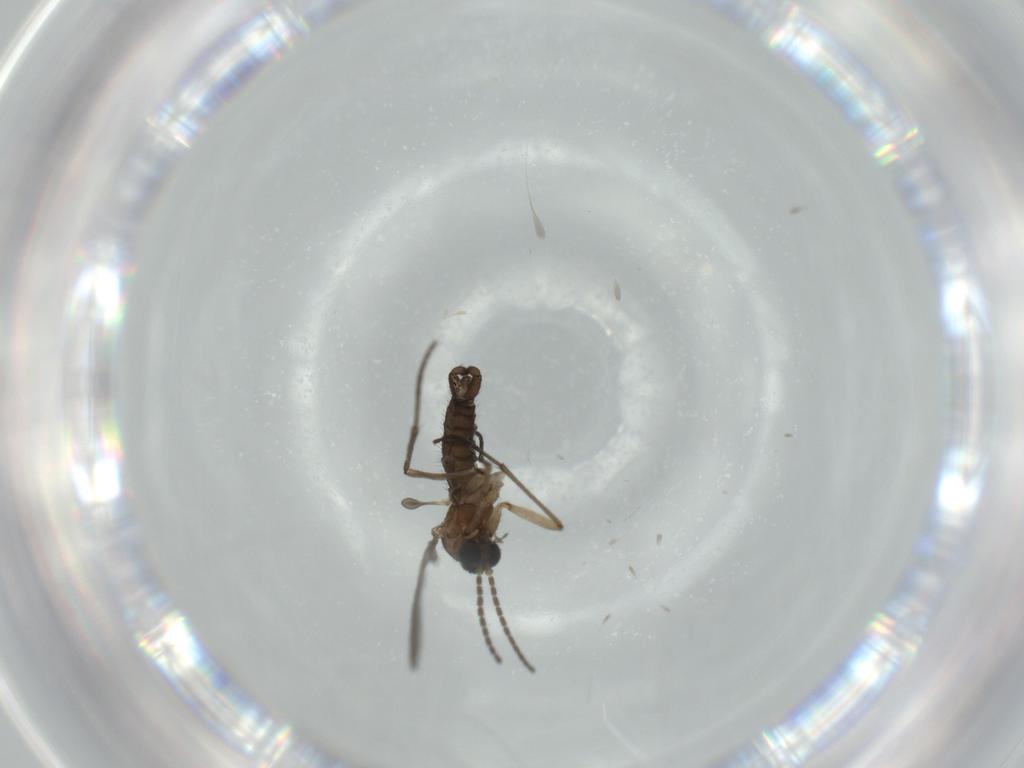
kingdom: Animalia
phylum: Arthropoda
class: Insecta
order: Diptera
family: Sciaridae
